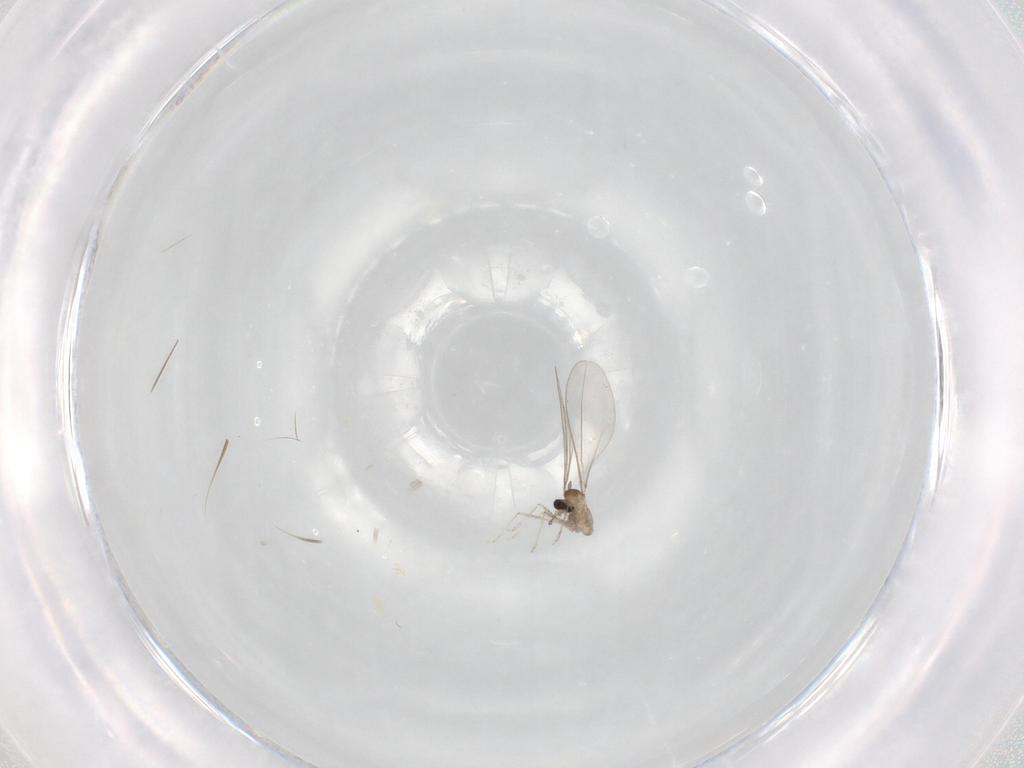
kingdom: Animalia
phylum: Arthropoda
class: Insecta
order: Diptera
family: Cecidomyiidae
